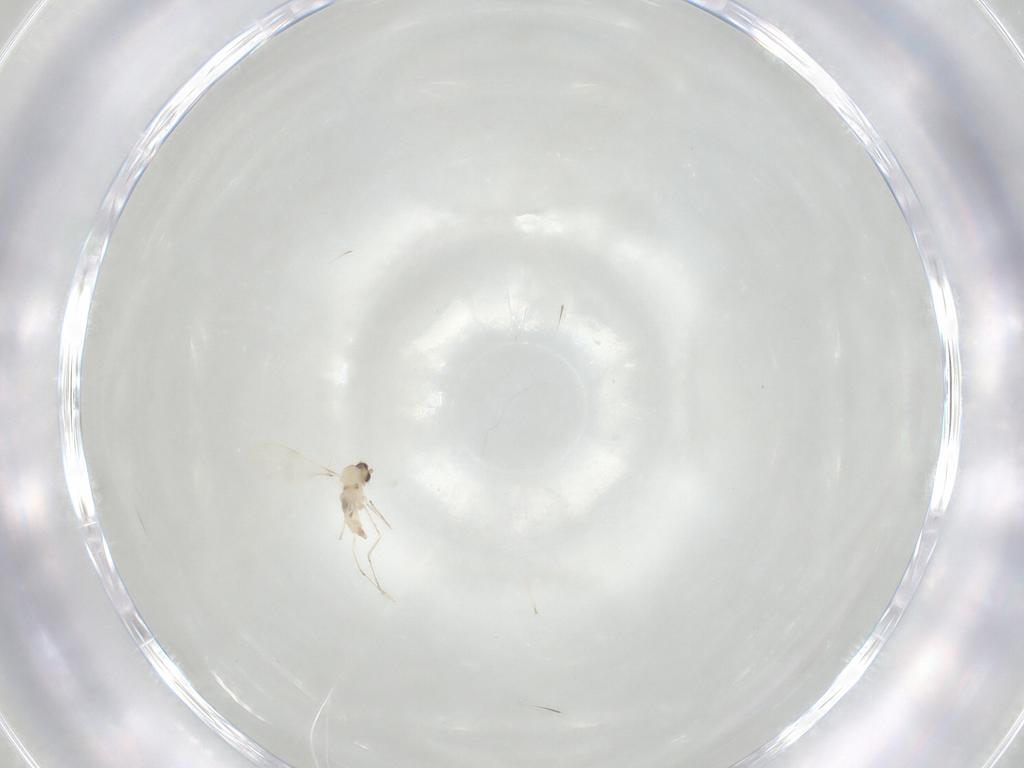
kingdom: Animalia
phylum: Arthropoda
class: Insecta
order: Diptera
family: Cecidomyiidae
